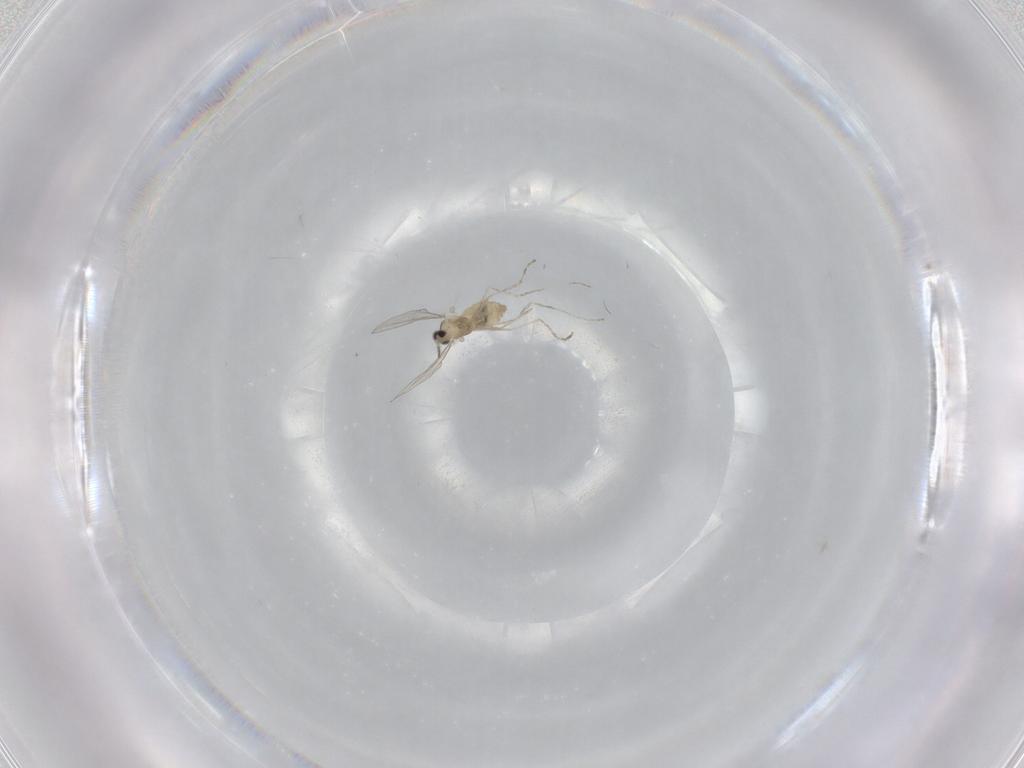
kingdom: Animalia
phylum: Arthropoda
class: Insecta
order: Diptera
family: Cecidomyiidae
